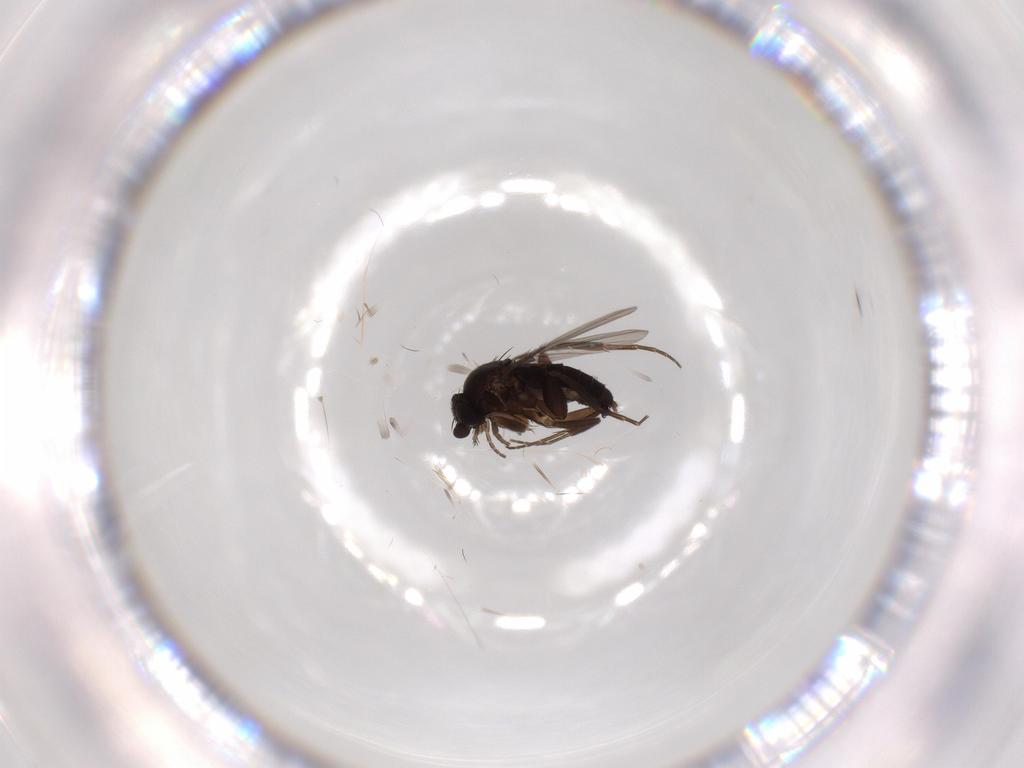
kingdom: Animalia
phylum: Arthropoda
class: Insecta
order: Diptera
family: Phoridae
